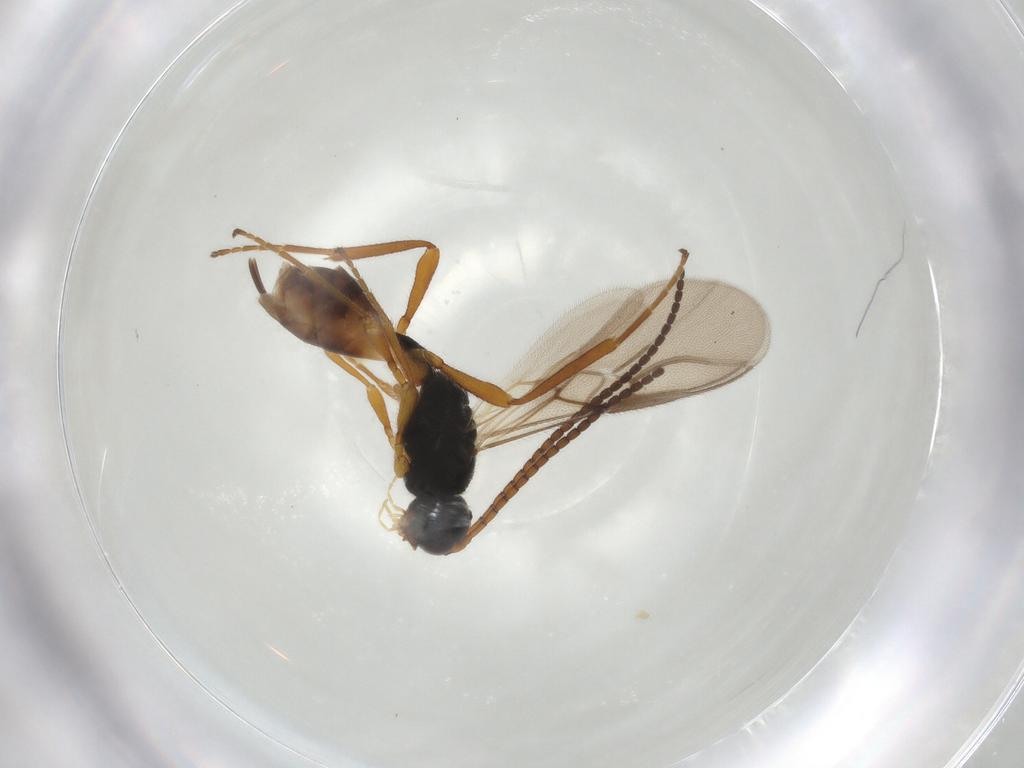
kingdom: Animalia
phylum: Arthropoda
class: Insecta
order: Hymenoptera
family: Braconidae
